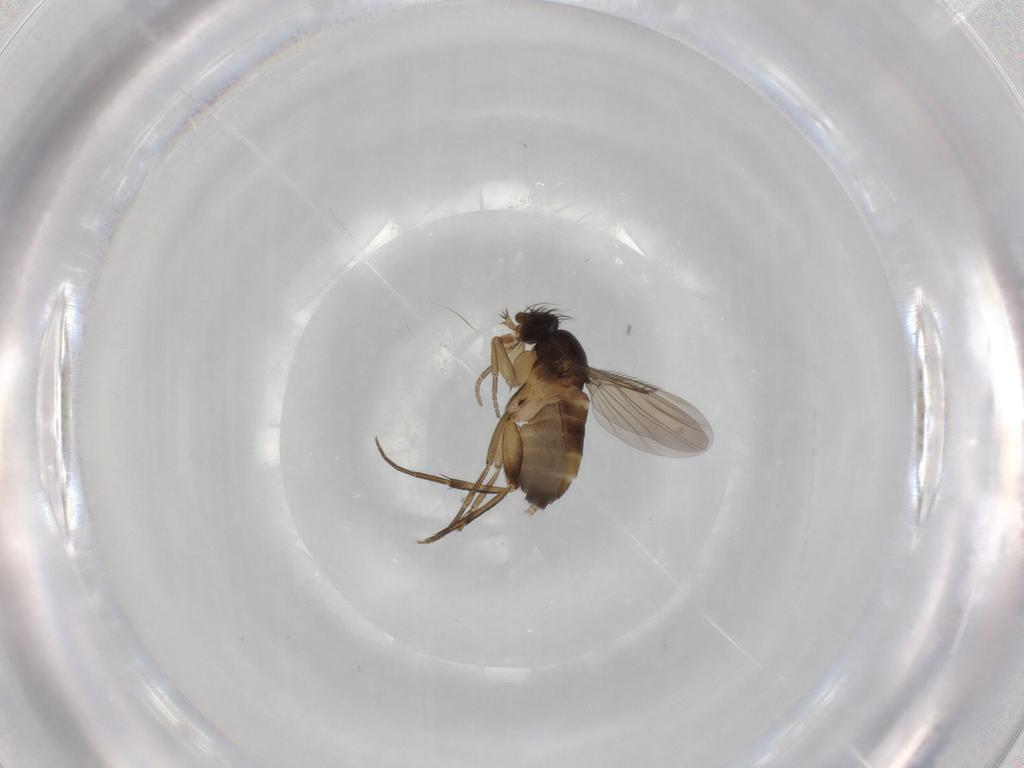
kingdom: Animalia
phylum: Arthropoda
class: Insecta
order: Diptera
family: Phoridae
